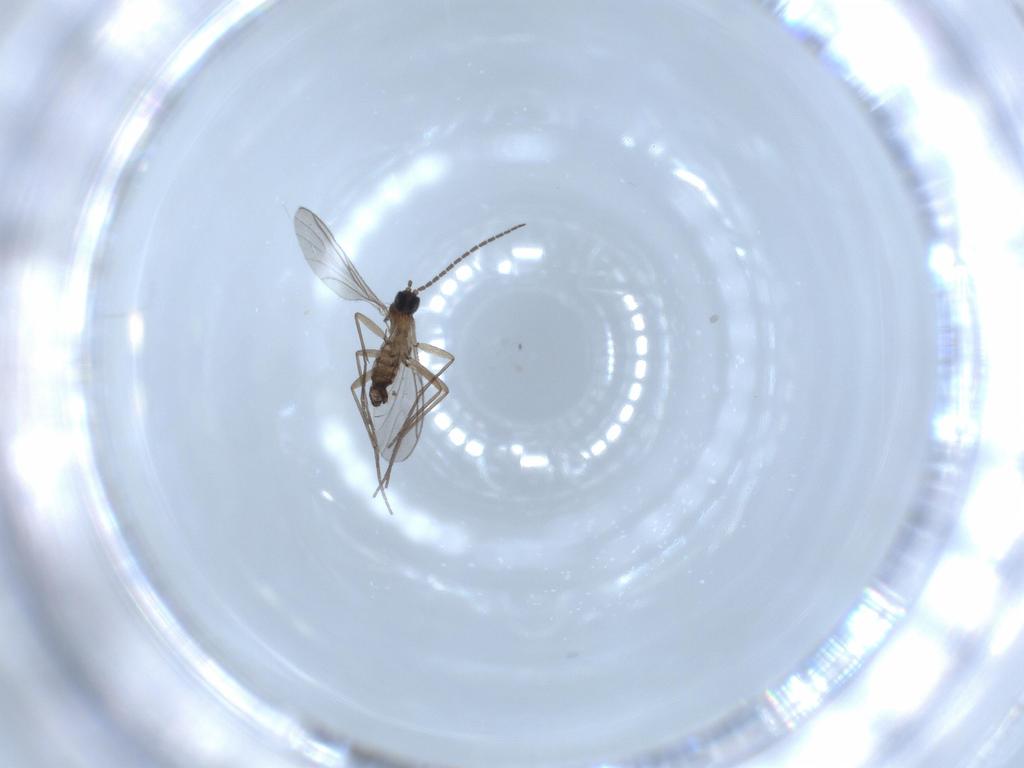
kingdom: Animalia
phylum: Arthropoda
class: Insecta
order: Diptera
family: Sciaridae
